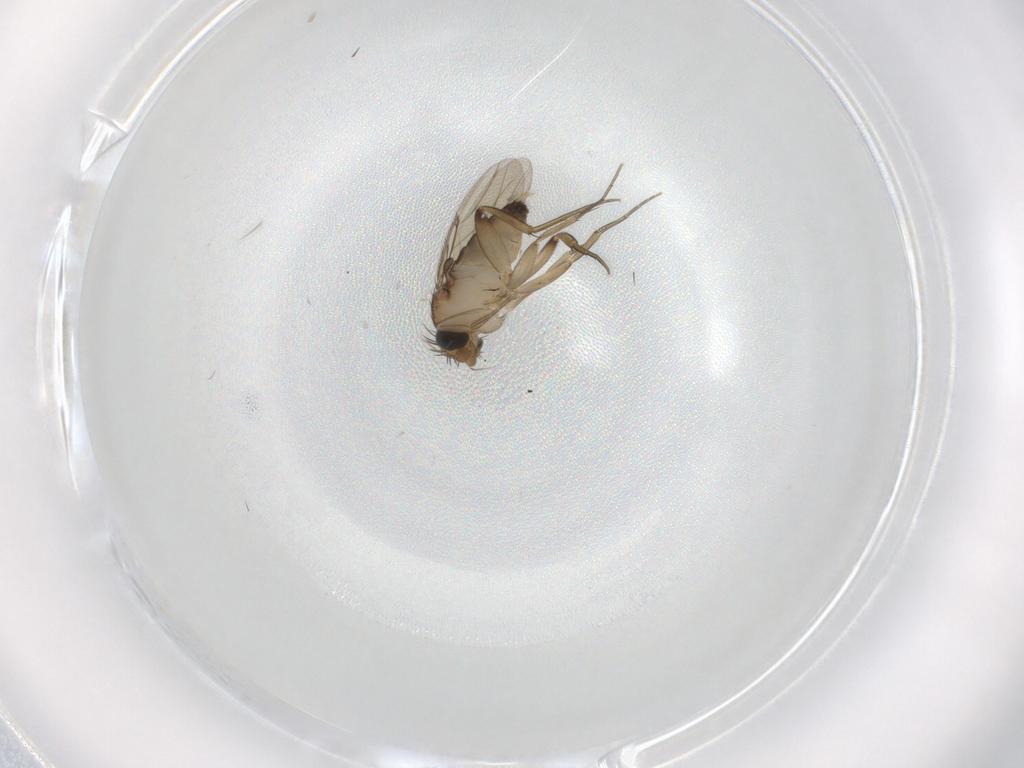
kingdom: Animalia
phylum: Arthropoda
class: Insecta
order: Diptera
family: Phoridae
